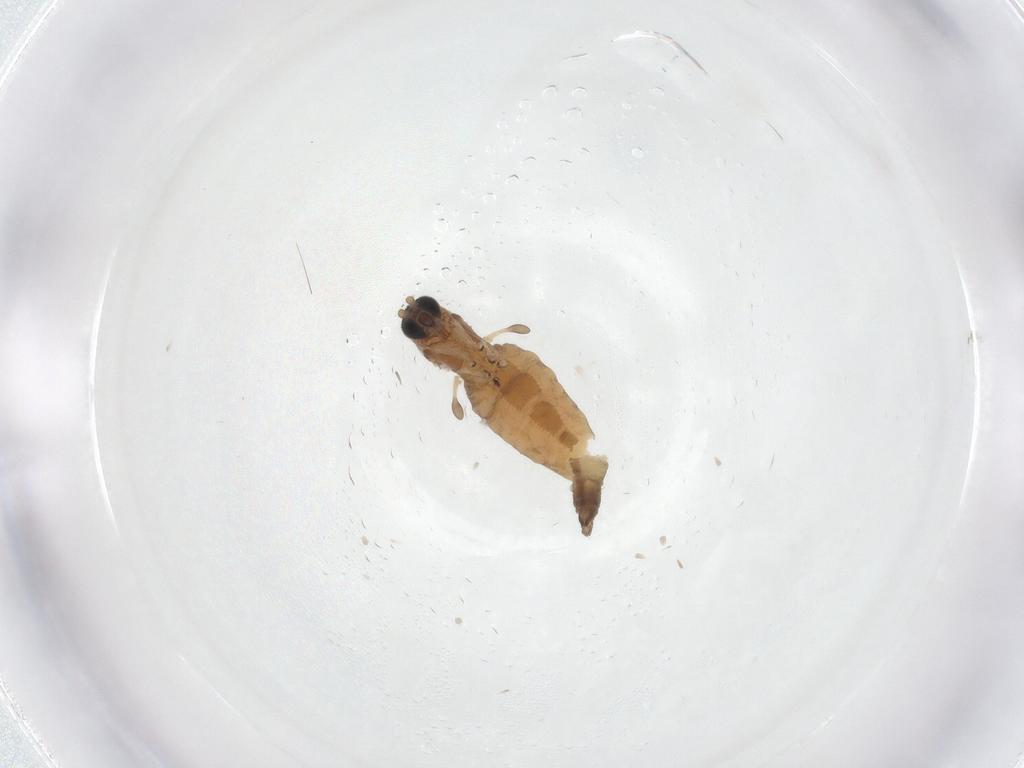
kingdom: Animalia
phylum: Arthropoda
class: Insecta
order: Diptera
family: Sciaridae
